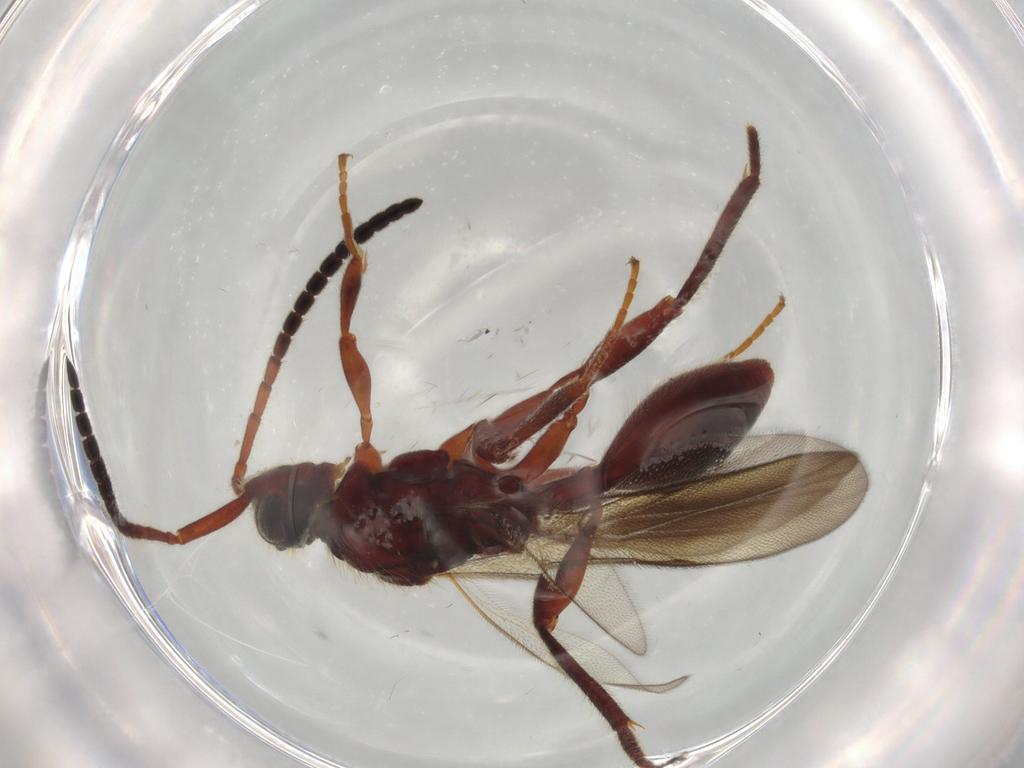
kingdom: Animalia
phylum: Arthropoda
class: Insecta
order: Hymenoptera
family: Diapriidae
